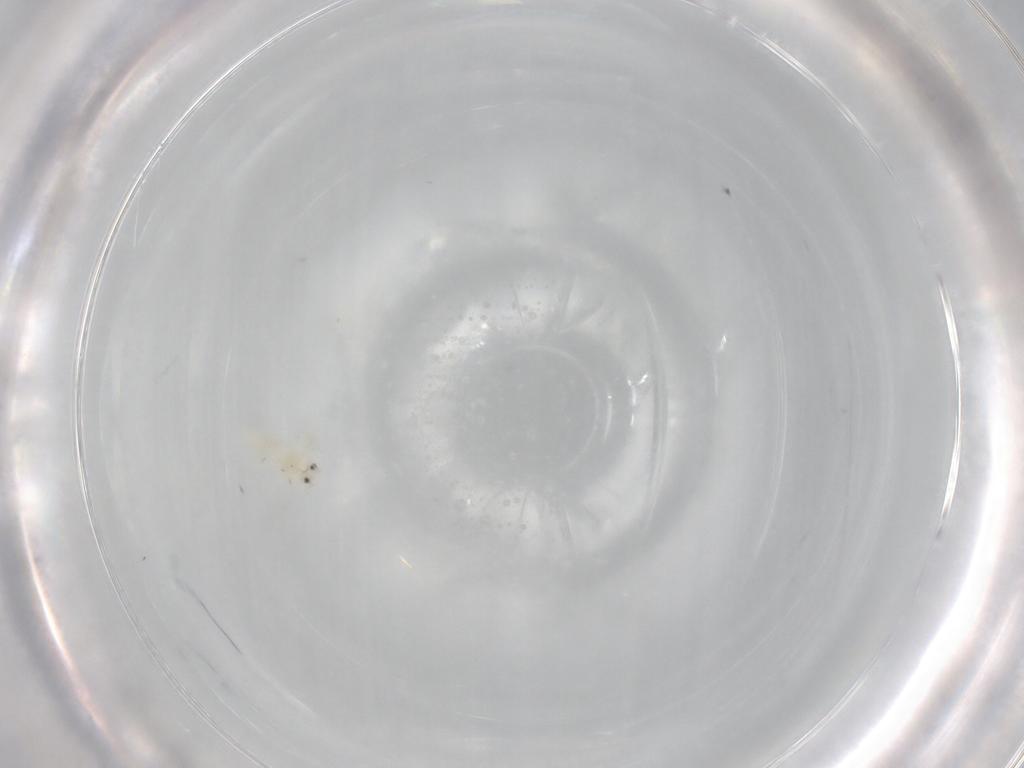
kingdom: Animalia
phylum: Arthropoda
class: Insecta
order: Hemiptera
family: Aleyrodidae
